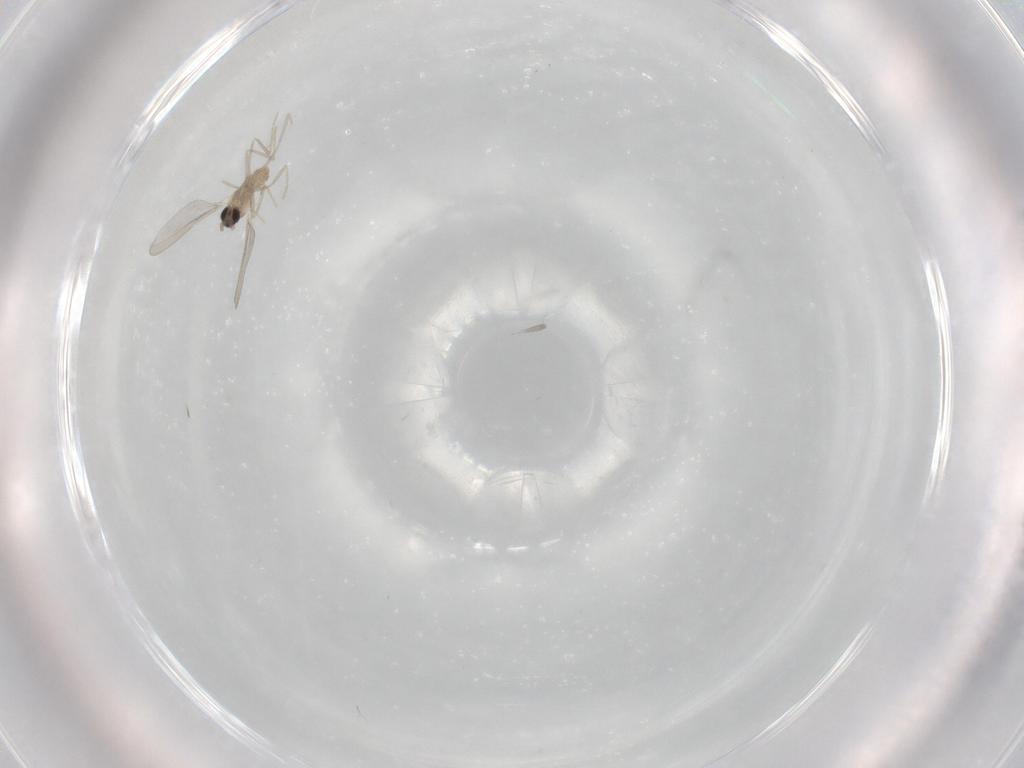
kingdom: Animalia
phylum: Arthropoda
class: Insecta
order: Diptera
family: Cecidomyiidae
